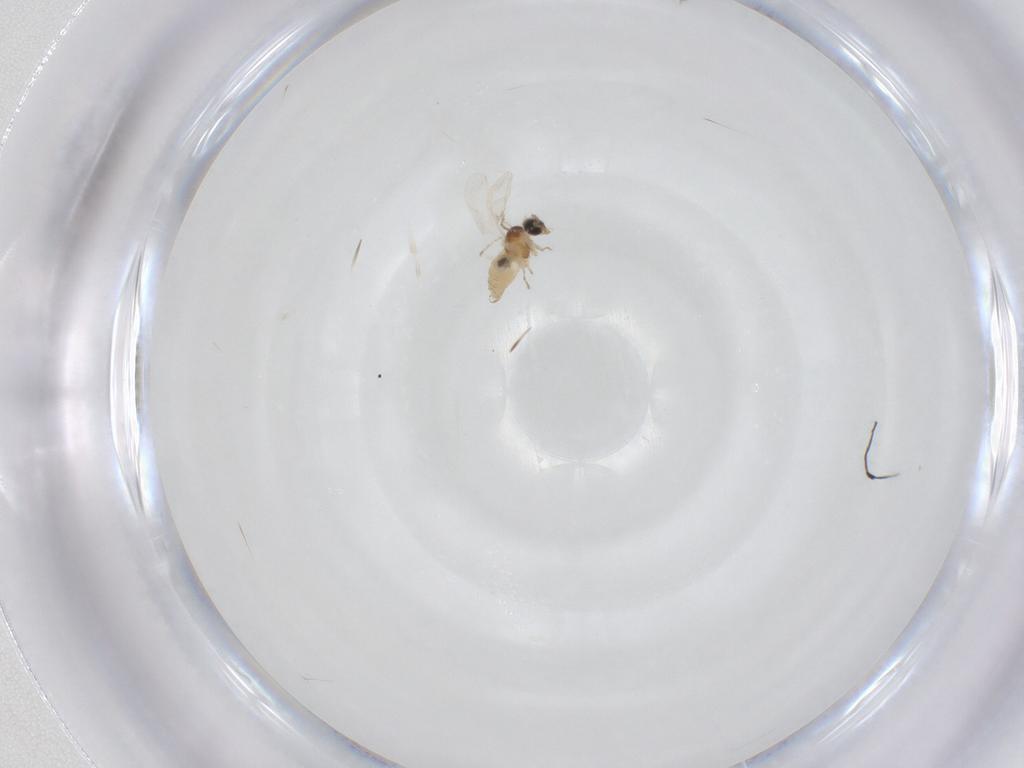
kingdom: Animalia
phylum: Arthropoda
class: Insecta
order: Diptera
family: Cecidomyiidae
